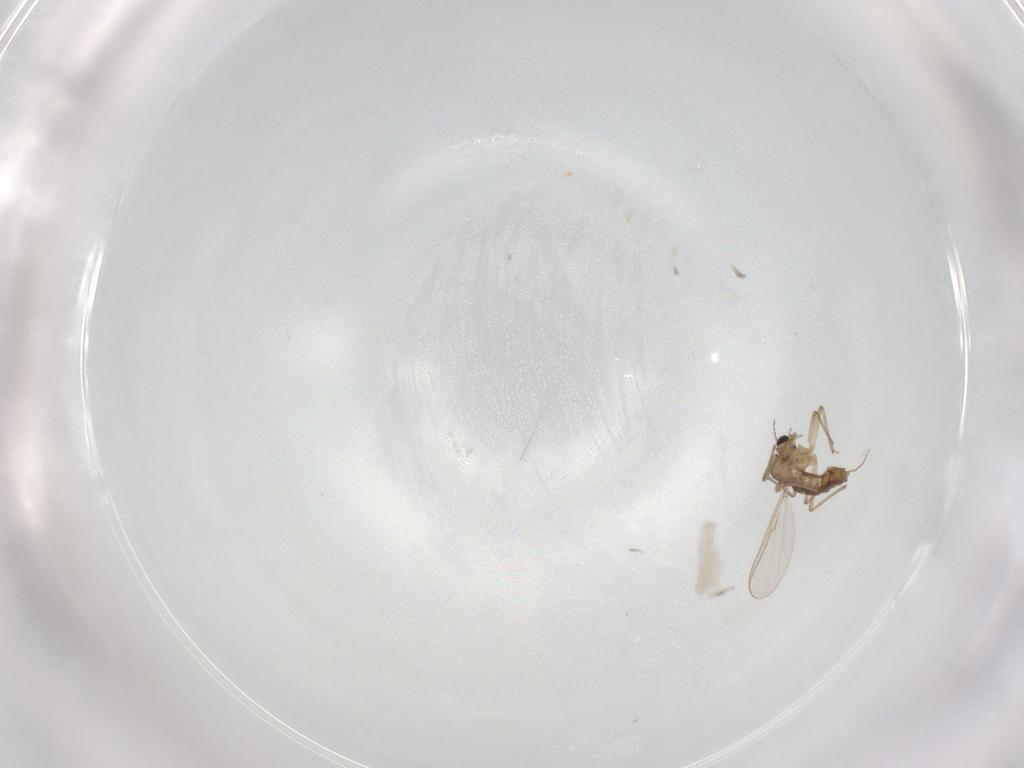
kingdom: Animalia
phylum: Arthropoda
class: Insecta
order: Diptera
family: Chironomidae
